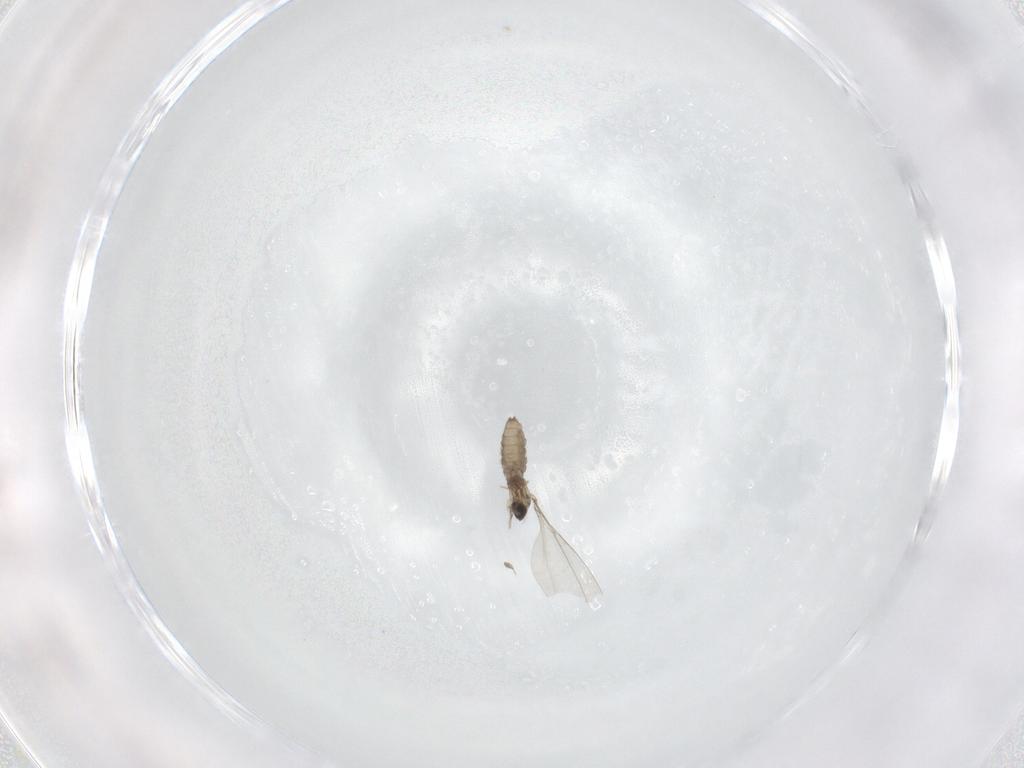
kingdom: Animalia
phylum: Arthropoda
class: Insecta
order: Diptera
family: Cecidomyiidae
